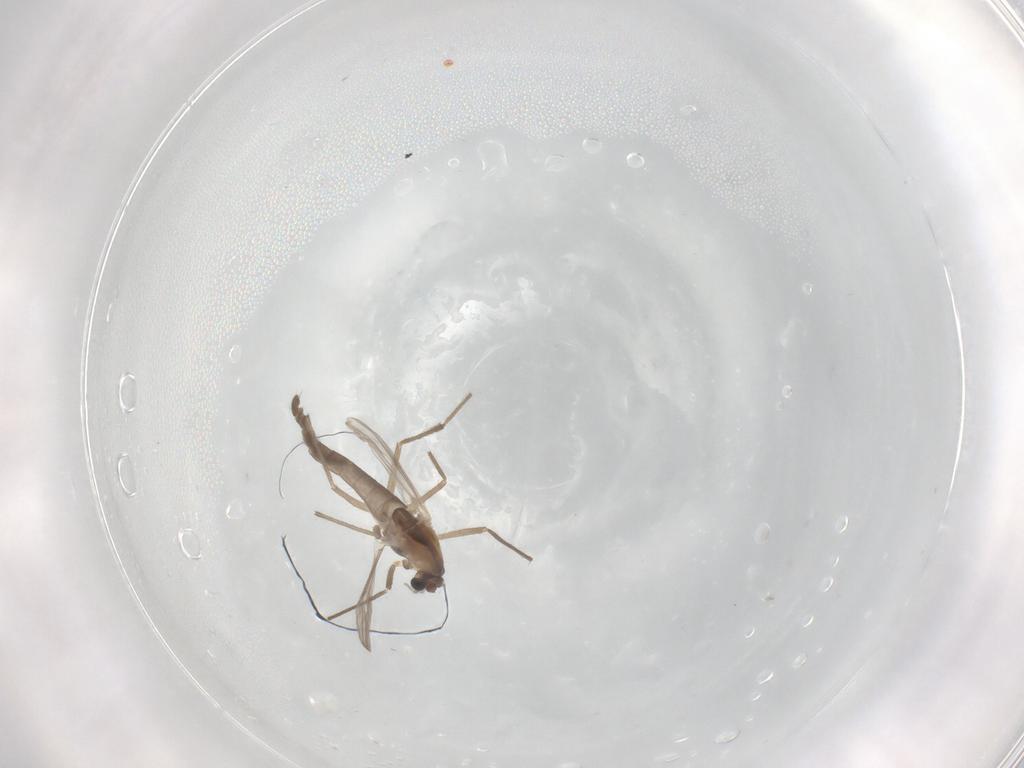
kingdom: Animalia
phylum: Arthropoda
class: Insecta
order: Diptera
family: Chironomidae
